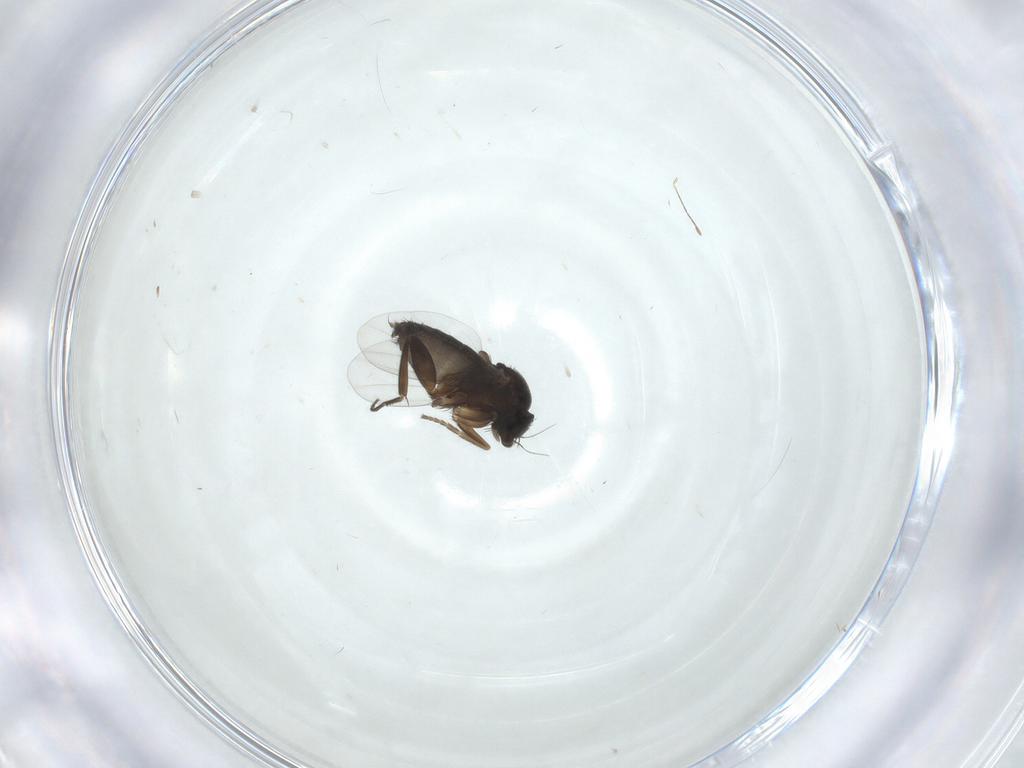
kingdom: Animalia
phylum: Arthropoda
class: Insecta
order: Diptera
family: Phoridae
